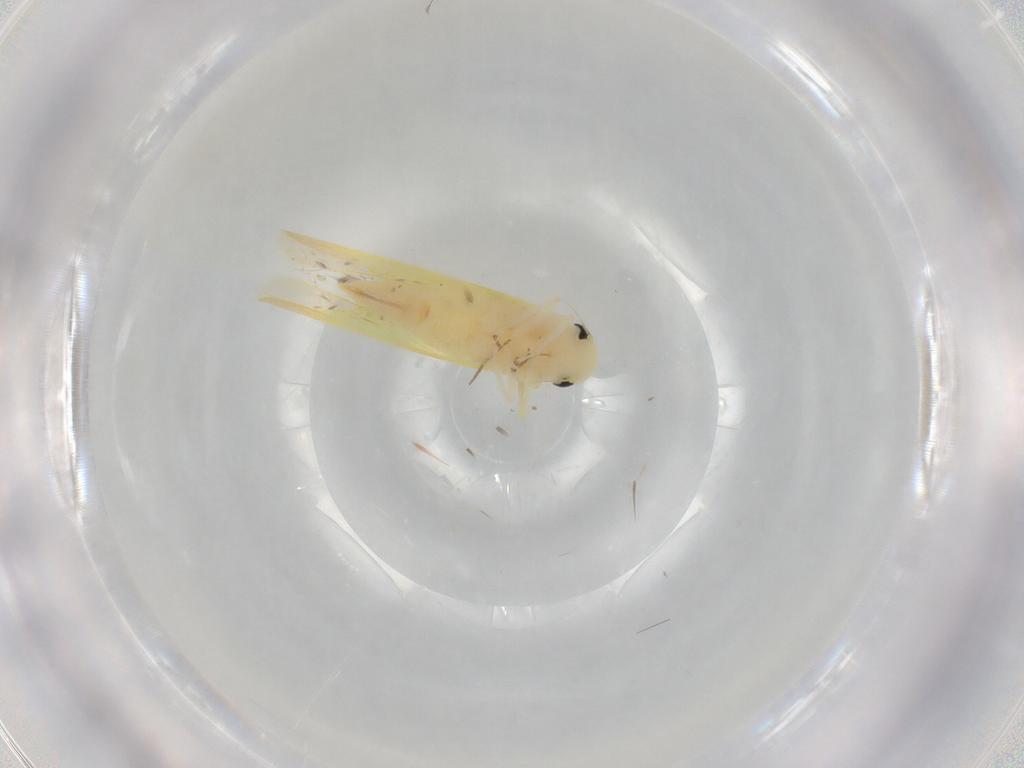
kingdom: Animalia
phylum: Arthropoda
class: Insecta
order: Hemiptera
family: Cicadellidae
